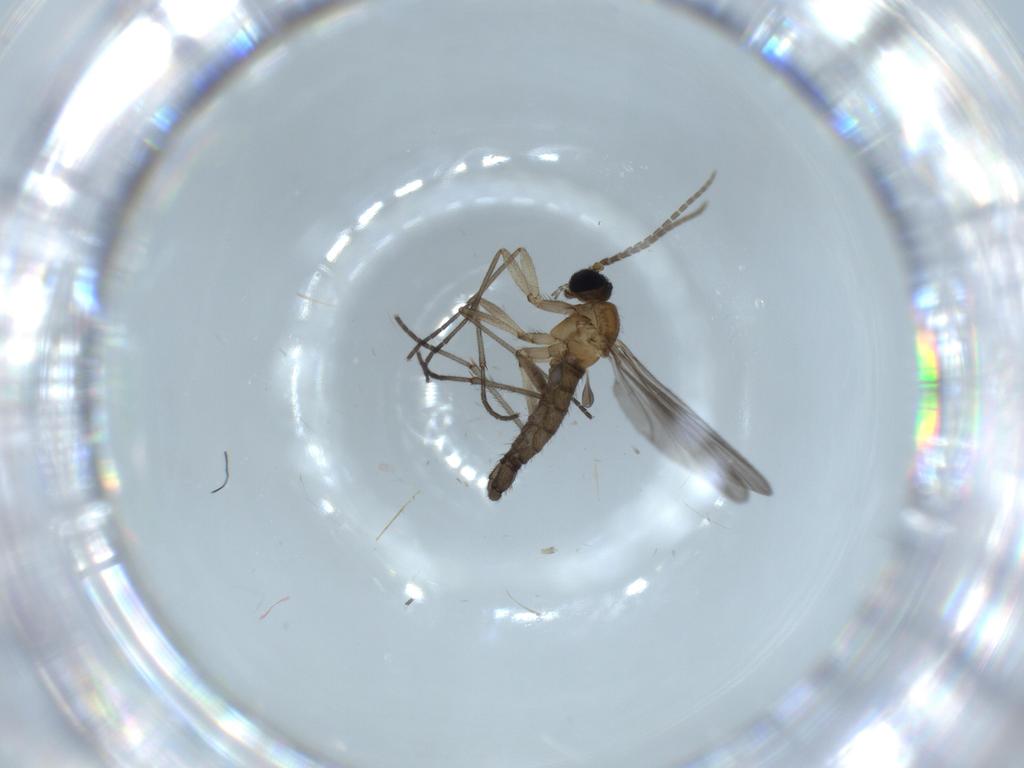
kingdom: Animalia
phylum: Arthropoda
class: Insecta
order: Diptera
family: Sciaridae
